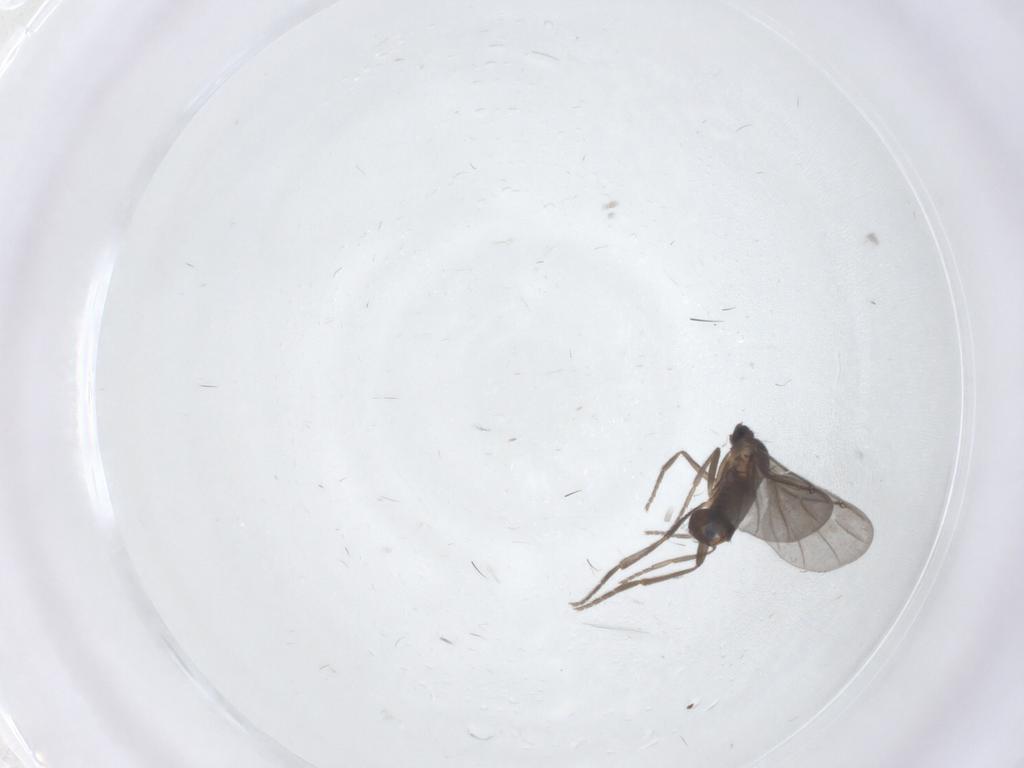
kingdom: Animalia
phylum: Arthropoda
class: Insecta
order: Diptera
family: Phoridae
